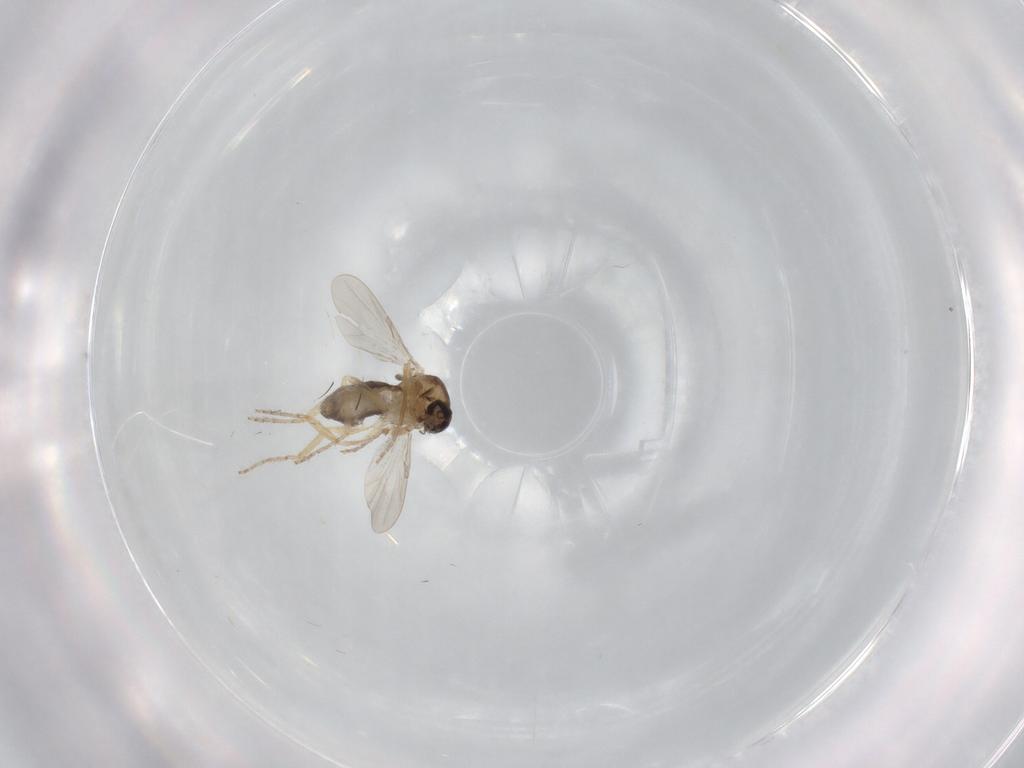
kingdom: Animalia
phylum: Arthropoda
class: Insecta
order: Diptera
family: Ceratopogonidae
